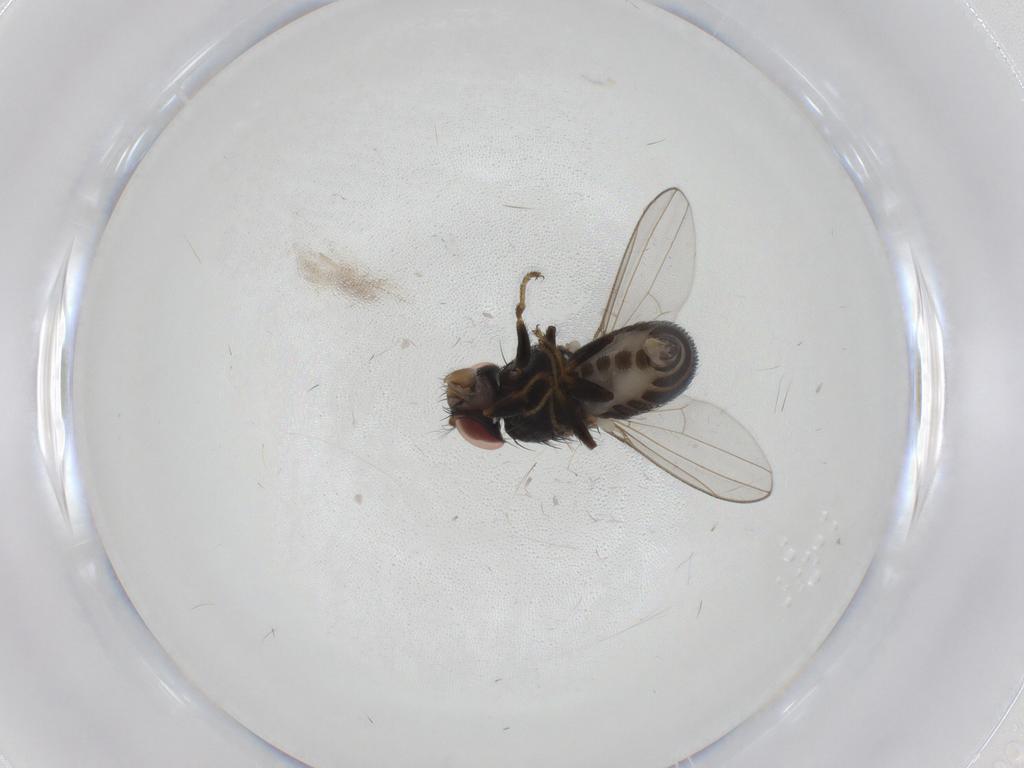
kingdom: Animalia
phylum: Arthropoda
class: Insecta
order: Diptera
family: Ephydridae
